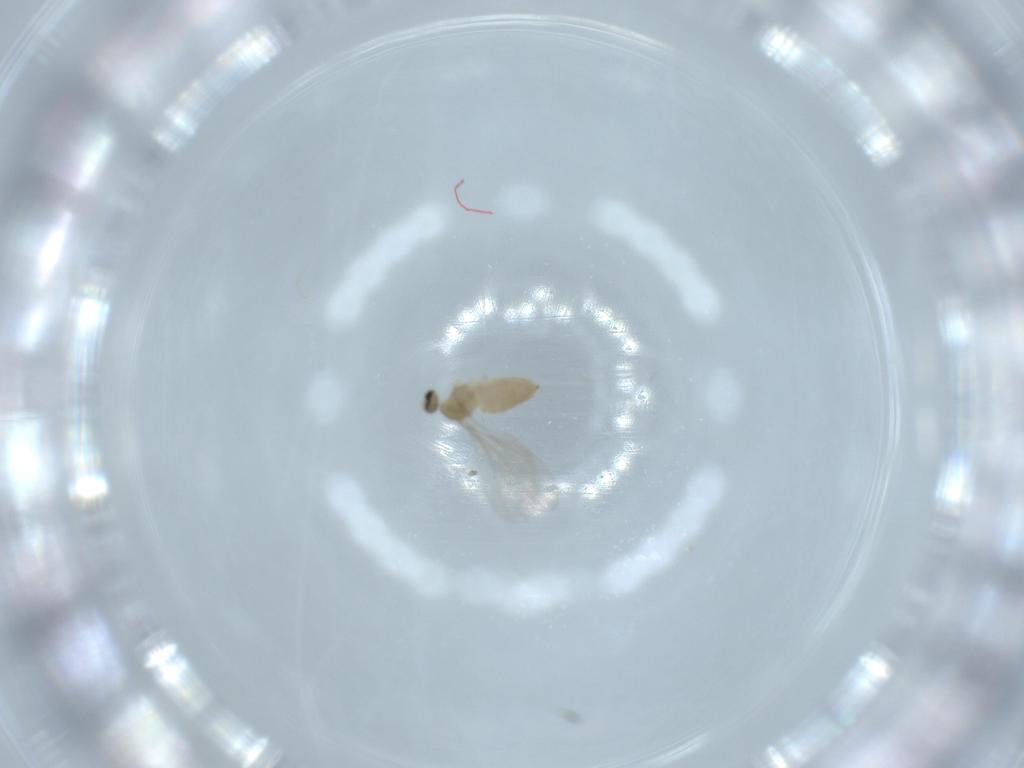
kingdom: Animalia
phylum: Arthropoda
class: Insecta
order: Diptera
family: Cecidomyiidae
